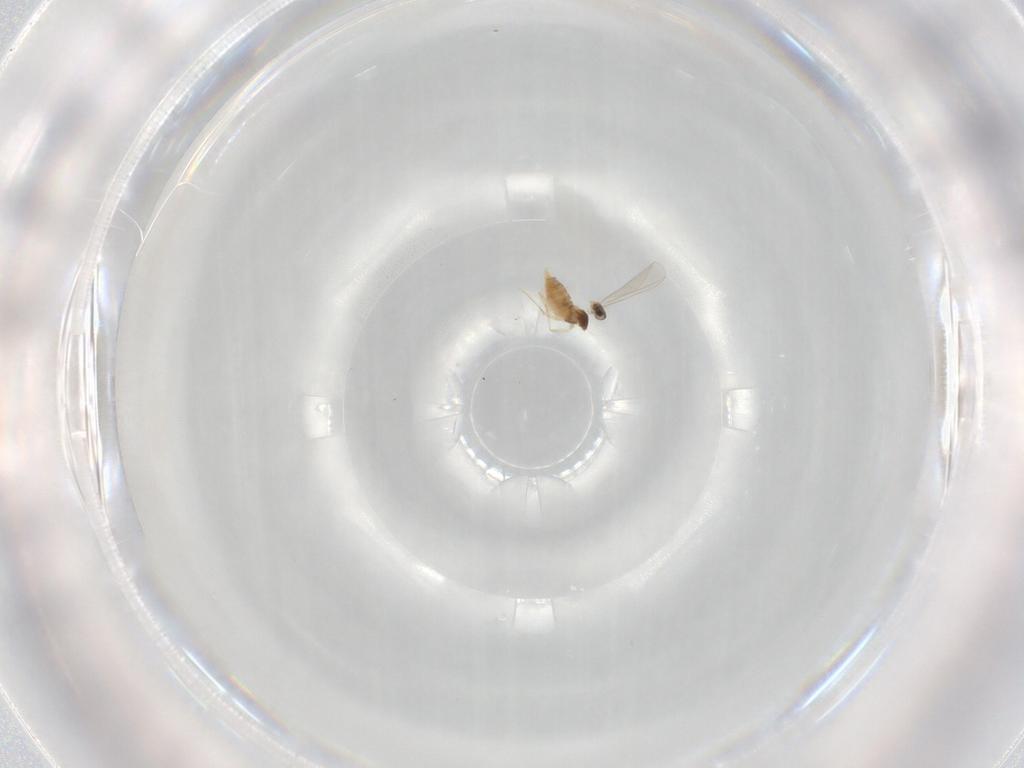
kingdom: Animalia
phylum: Arthropoda
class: Insecta
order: Diptera
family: Cecidomyiidae
